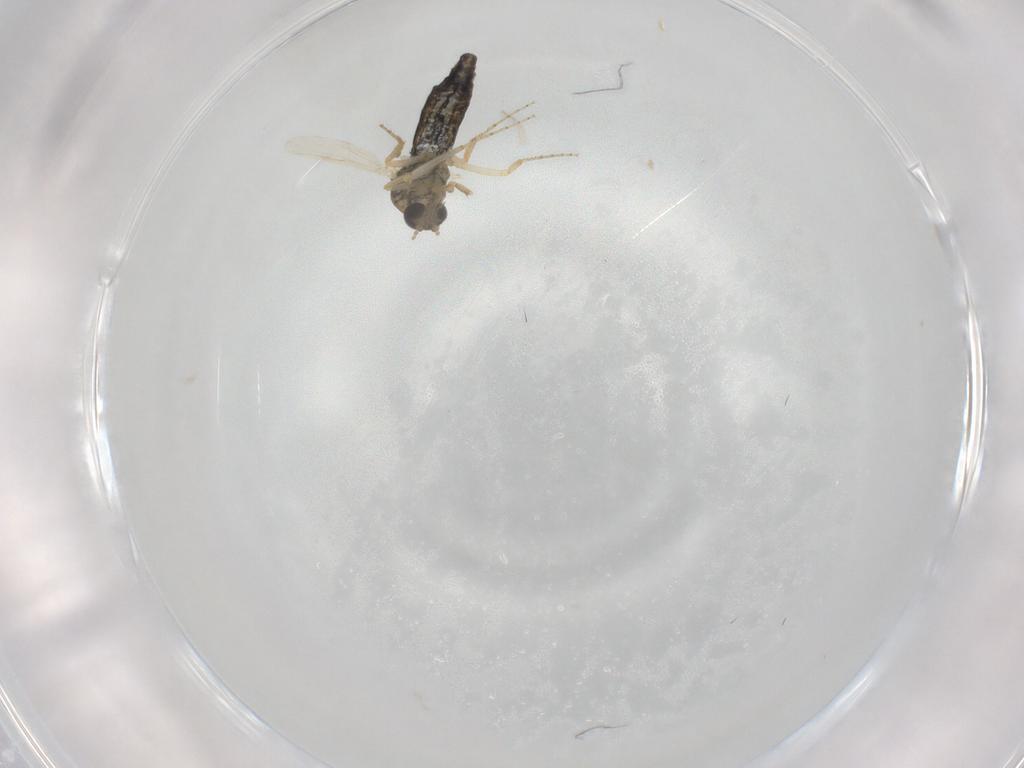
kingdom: Animalia
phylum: Arthropoda
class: Insecta
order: Diptera
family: Ceratopogonidae
